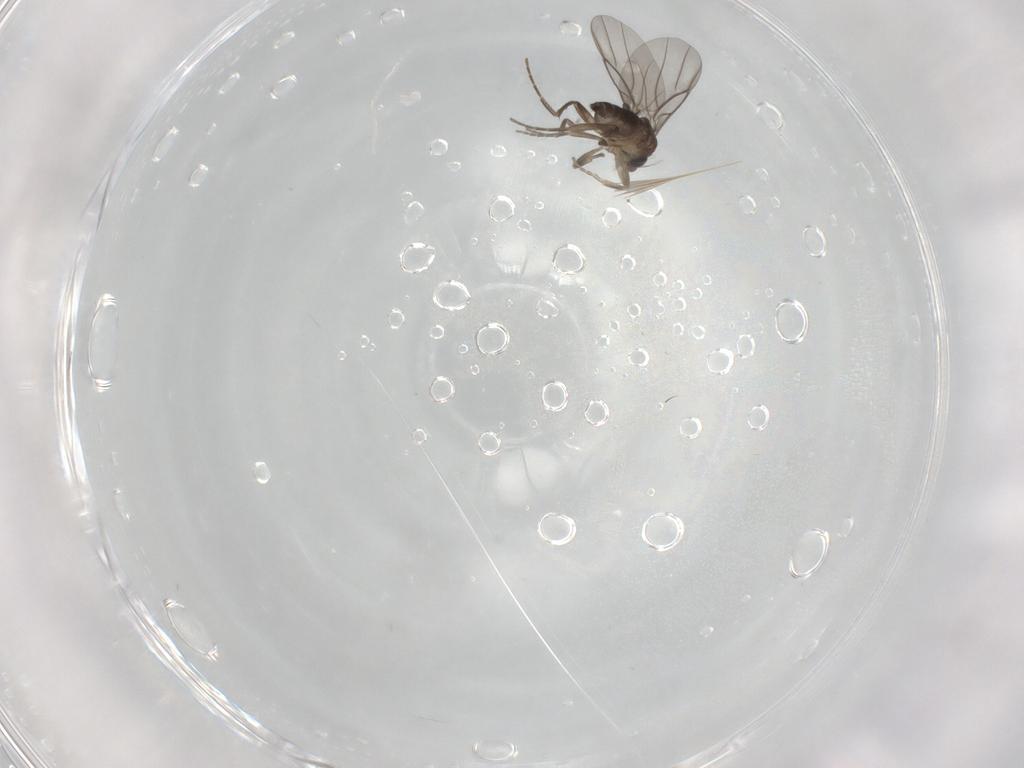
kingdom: Animalia
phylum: Arthropoda
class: Insecta
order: Diptera
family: Phoridae
